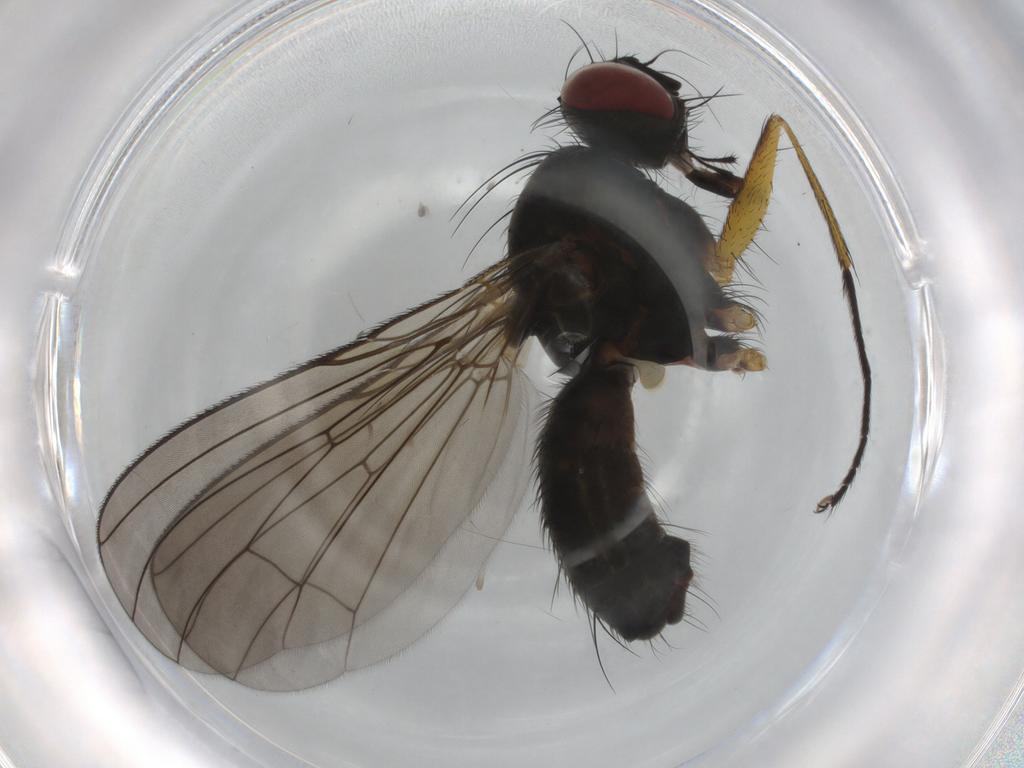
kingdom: Animalia
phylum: Arthropoda
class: Insecta
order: Diptera
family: Muscidae
